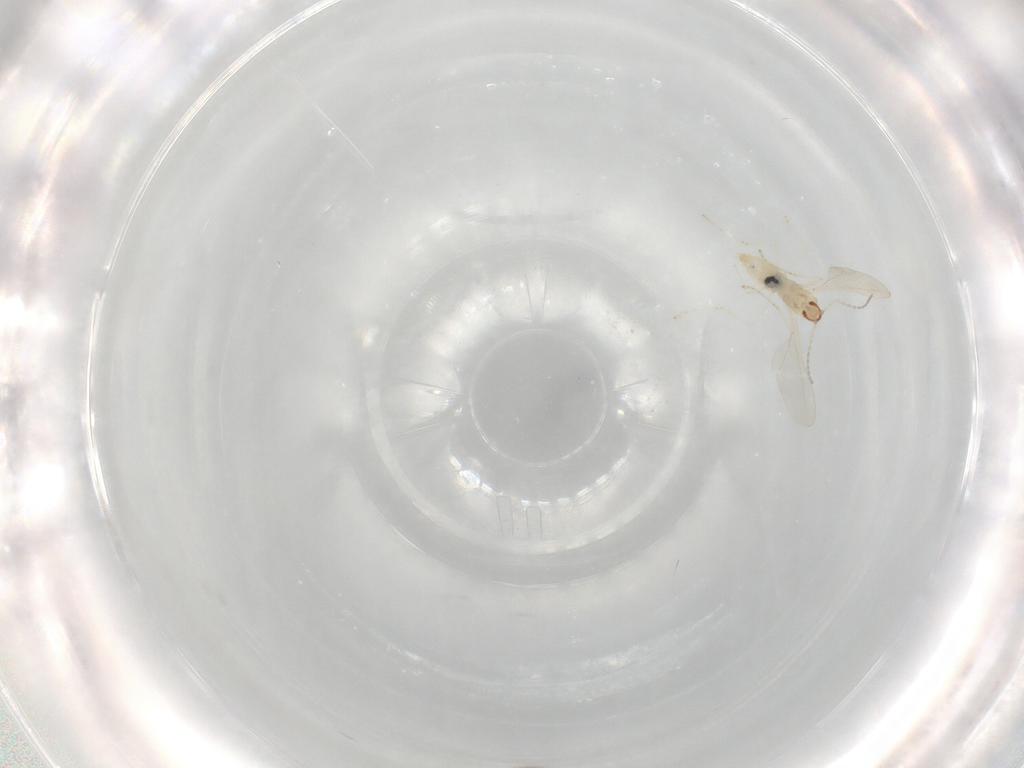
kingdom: Animalia
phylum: Arthropoda
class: Insecta
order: Diptera
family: Cecidomyiidae
